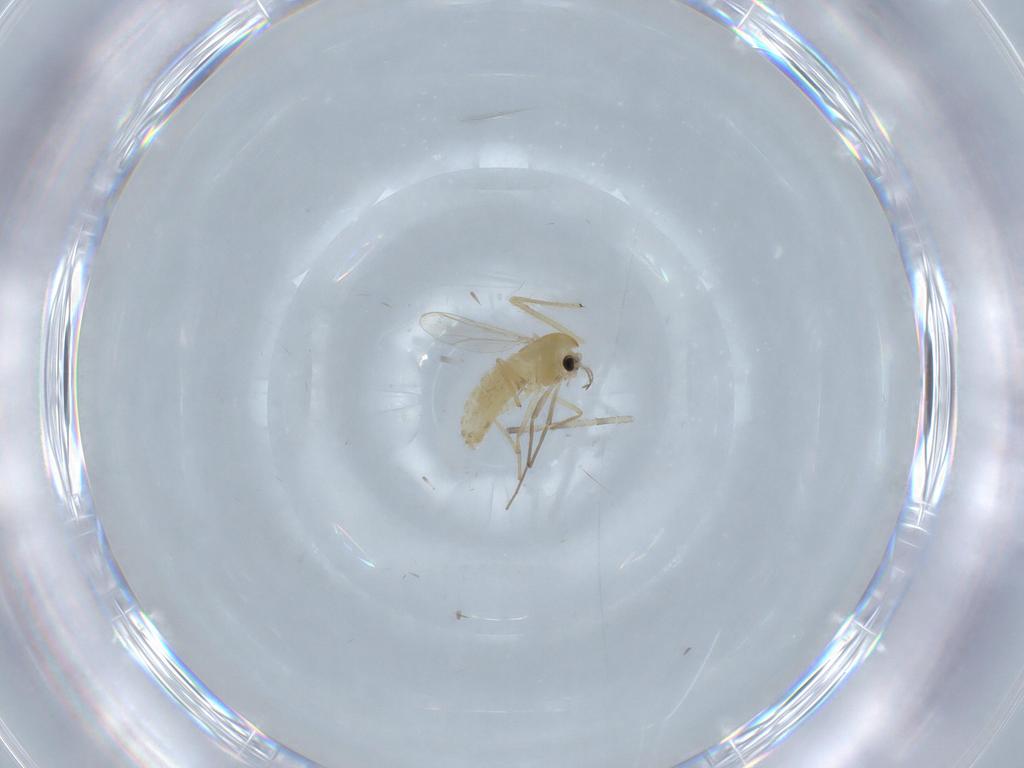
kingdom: Animalia
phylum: Arthropoda
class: Insecta
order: Diptera
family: Chironomidae
